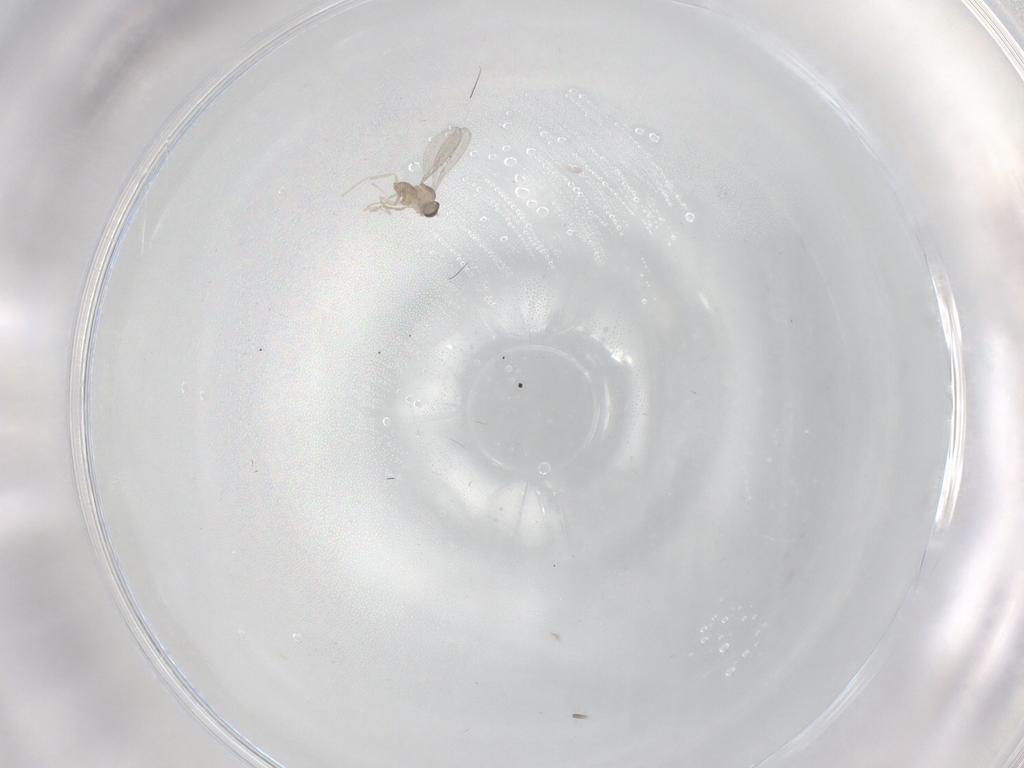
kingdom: Animalia
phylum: Arthropoda
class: Insecta
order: Diptera
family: Cecidomyiidae
